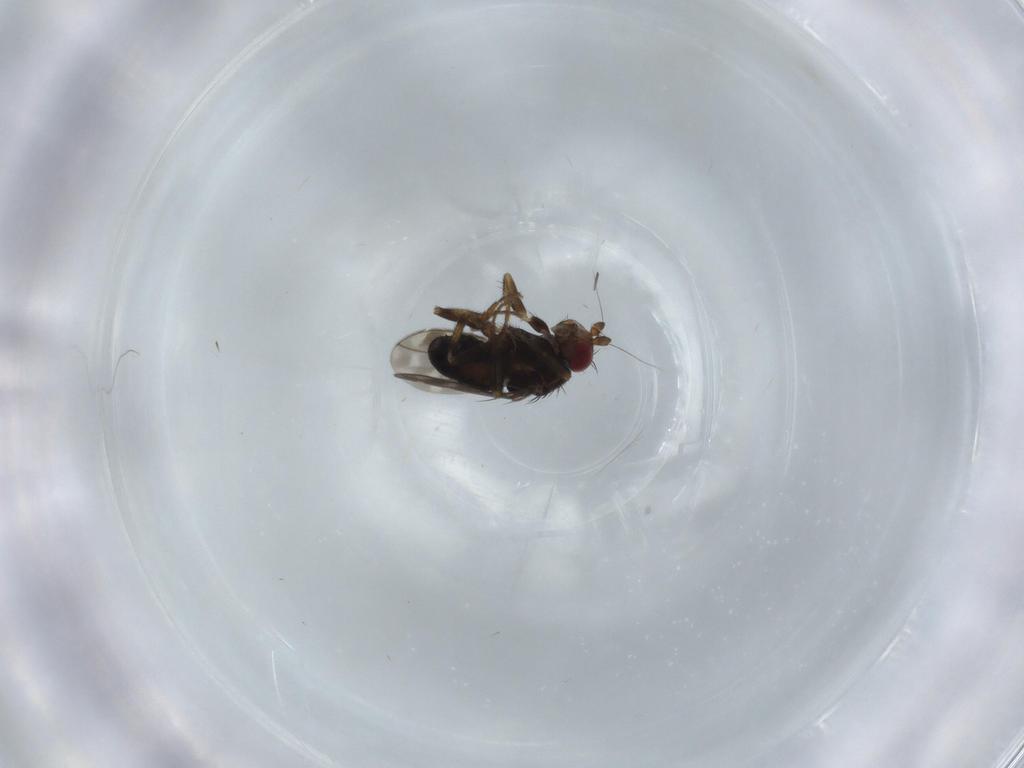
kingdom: Animalia
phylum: Arthropoda
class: Insecta
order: Diptera
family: Sphaeroceridae
